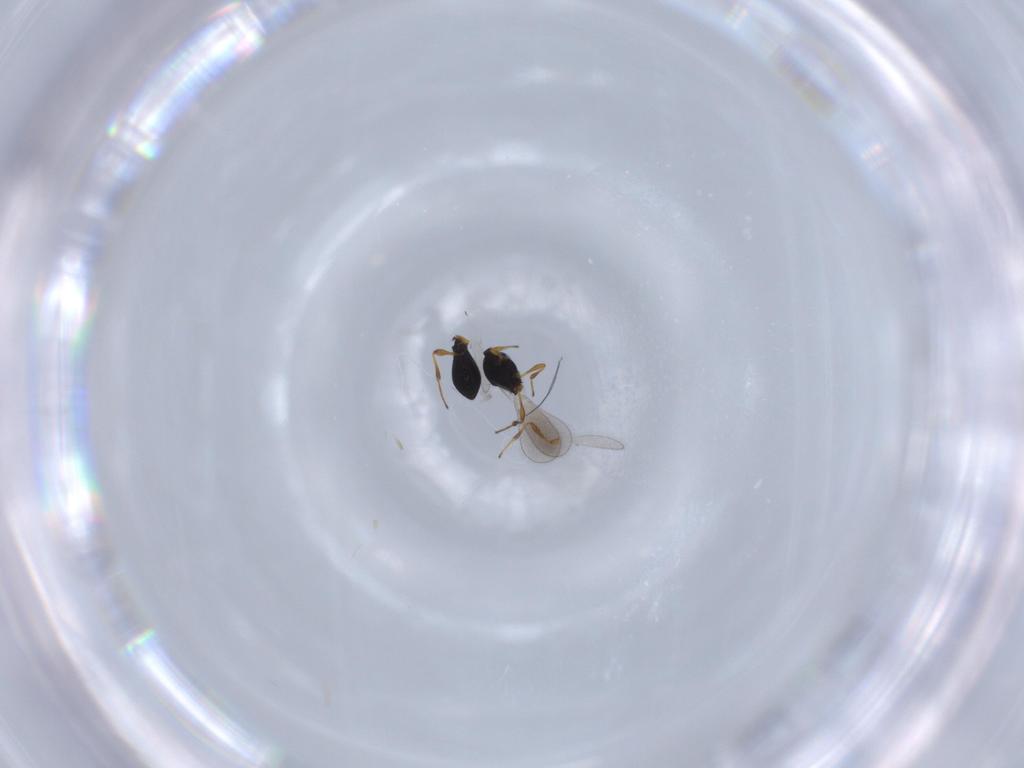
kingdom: Animalia
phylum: Arthropoda
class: Insecta
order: Hymenoptera
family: Platygastridae
